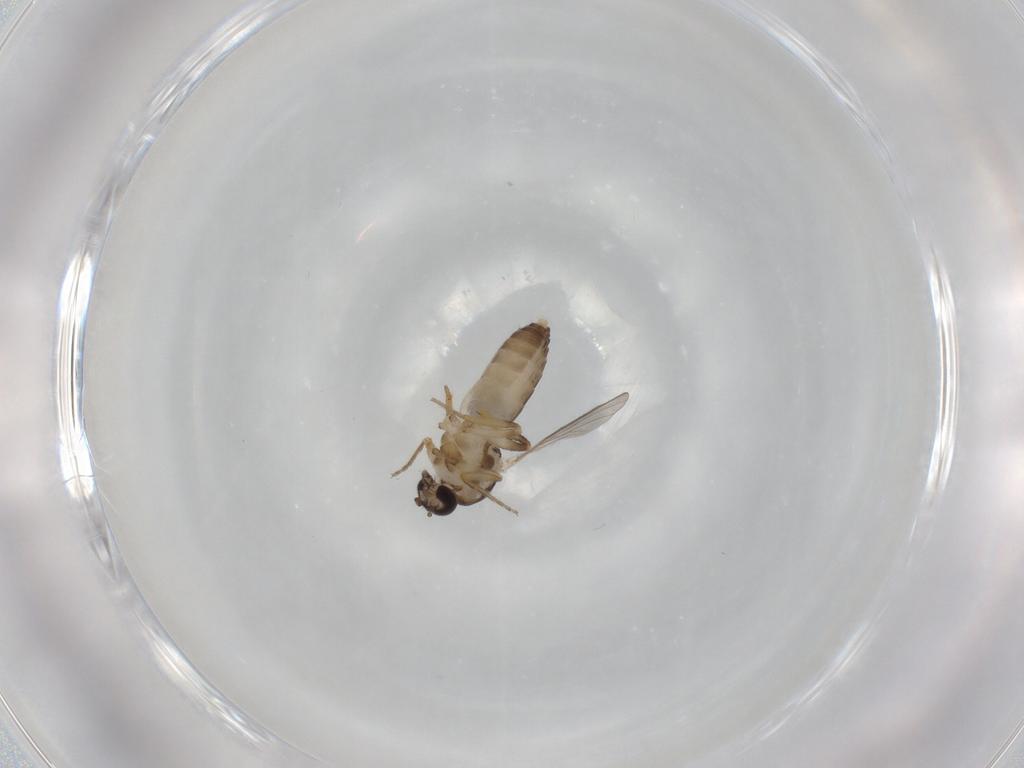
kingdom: Animalia
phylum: Arthropoda
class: Insecta
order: Diptera
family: Ceratopogonidae
